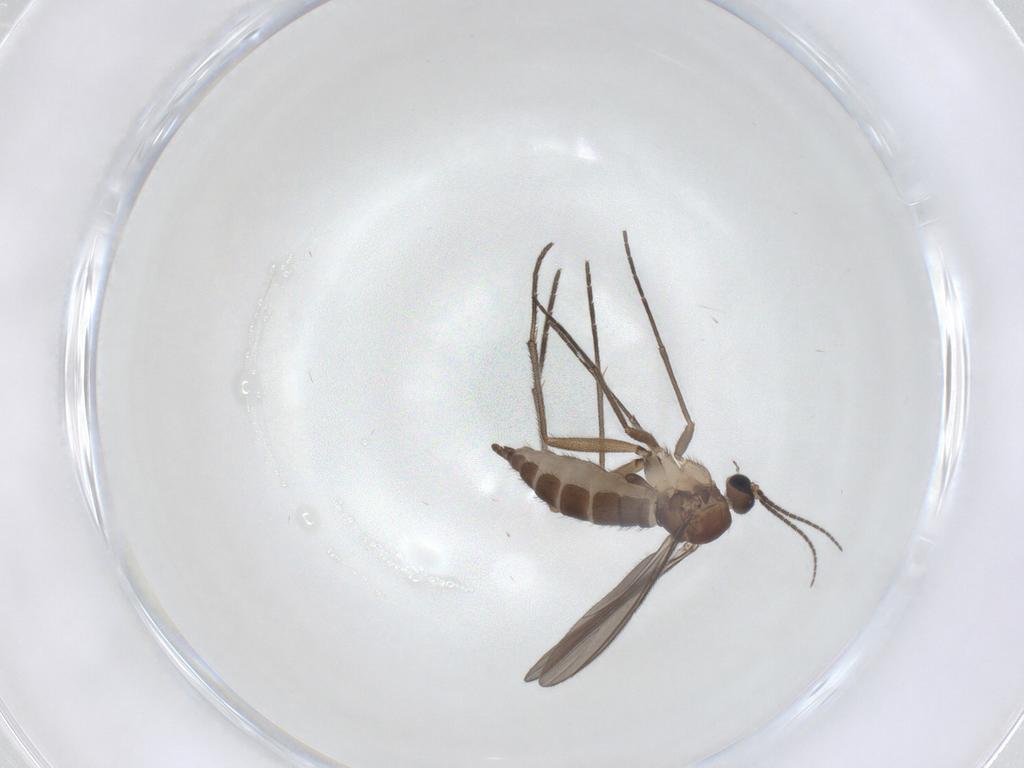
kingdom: Animalia
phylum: Arthropoda
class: Insecta
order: Diptera
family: Sciaridae
